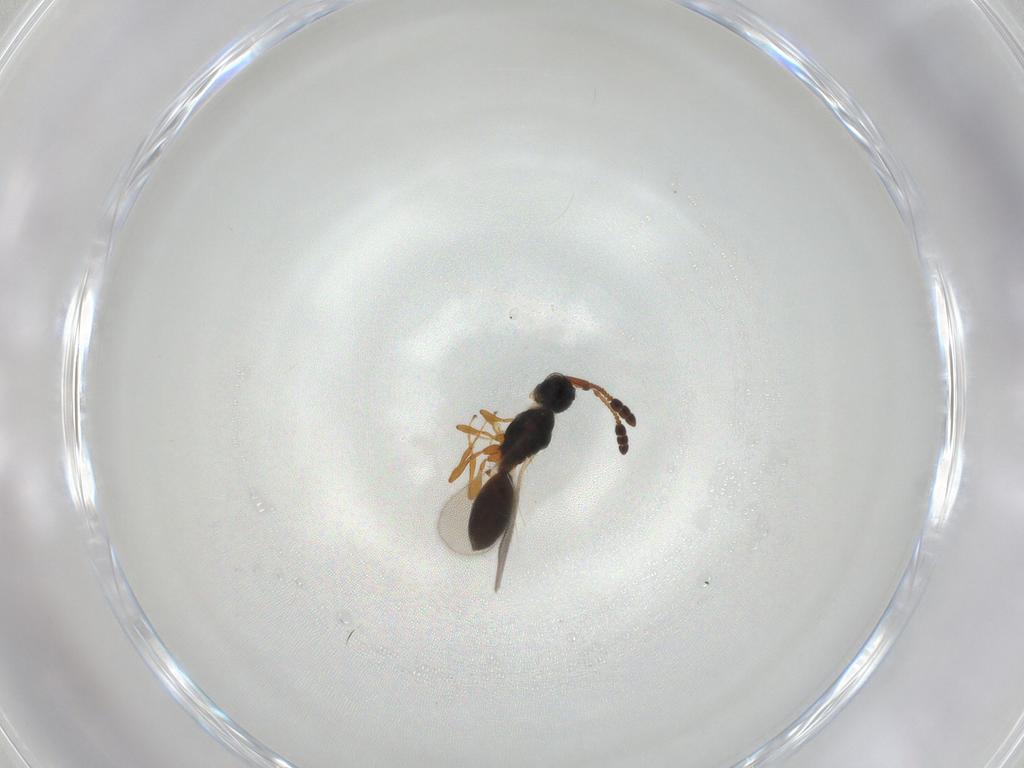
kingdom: Animalia
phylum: Arthropoda
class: Insecta
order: Hymenoptera
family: Diapriidae
